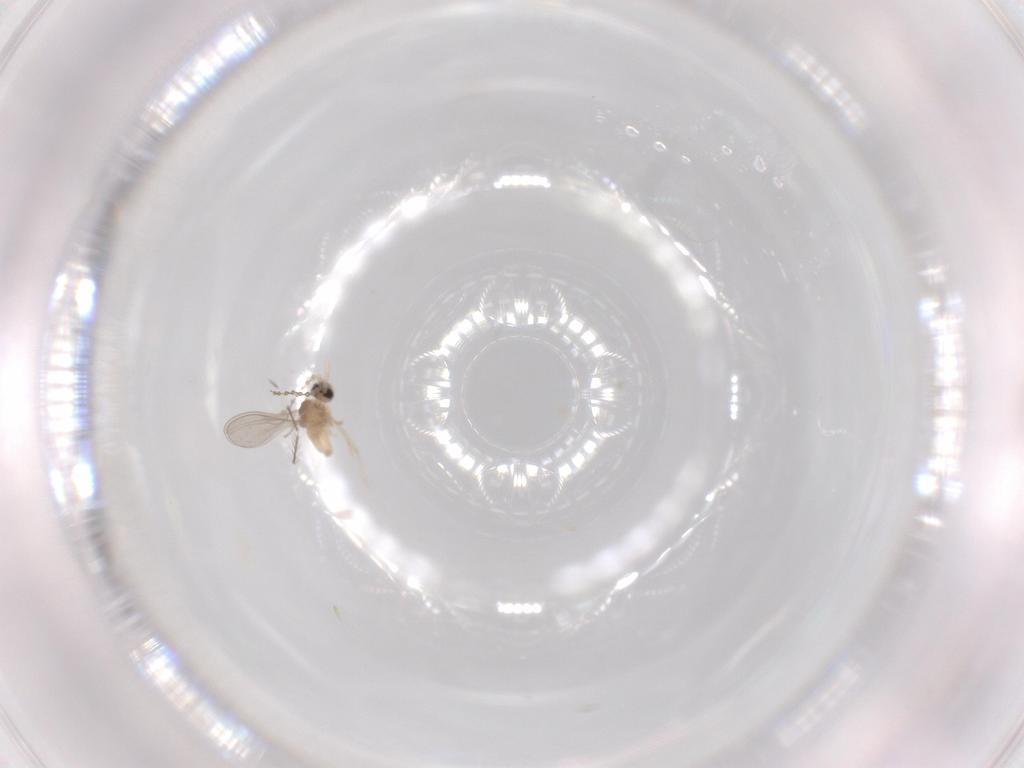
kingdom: Animalia
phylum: Arthropoda
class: Insecta
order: Diptera
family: Cecidomyiidae
